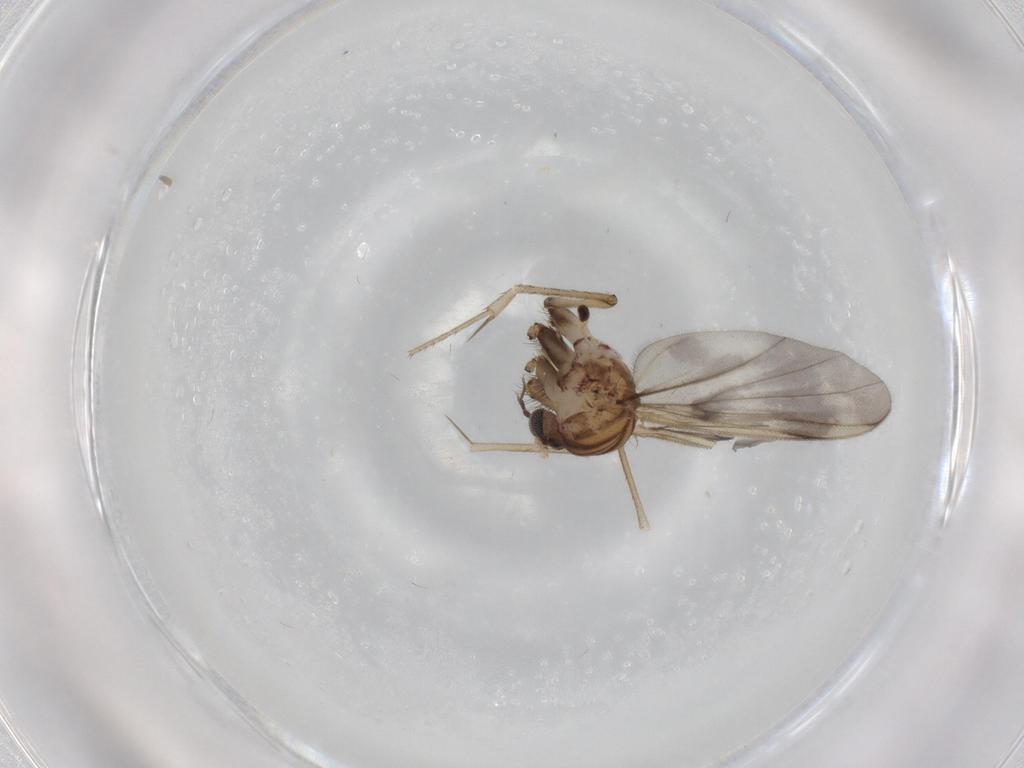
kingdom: Animalia
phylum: Arthropoda
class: Insecta
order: Diptera
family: Mycetophilidae
